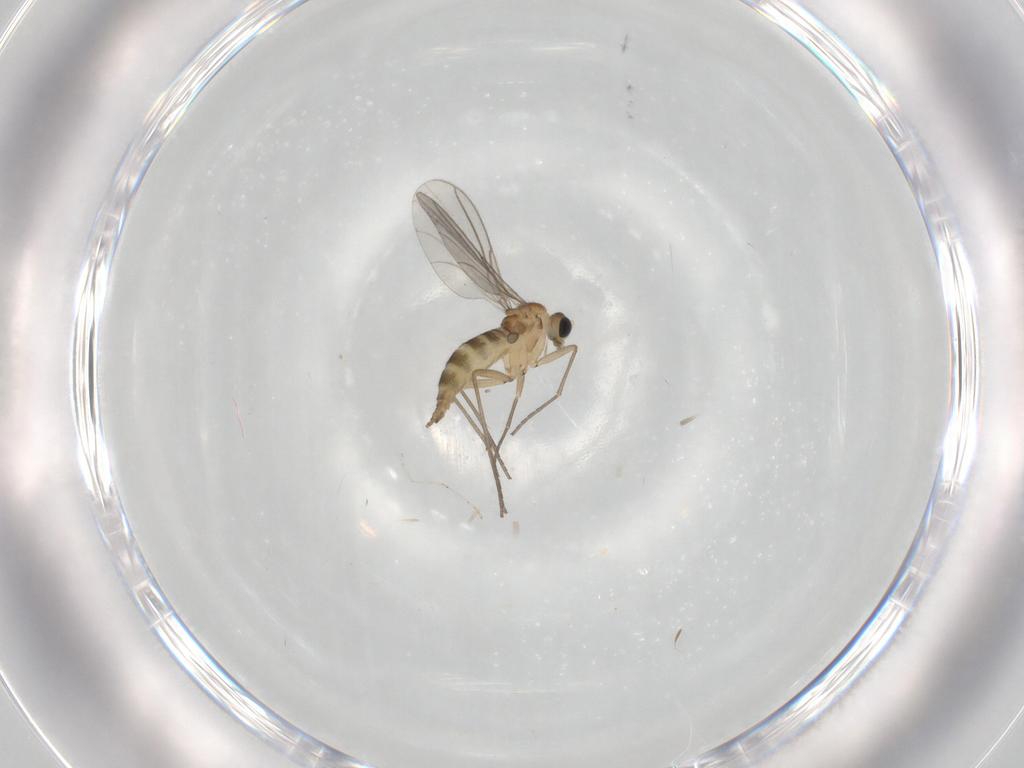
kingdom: Animalia
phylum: Arthropoda
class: Insecta
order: Diptera
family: Sciaridae
